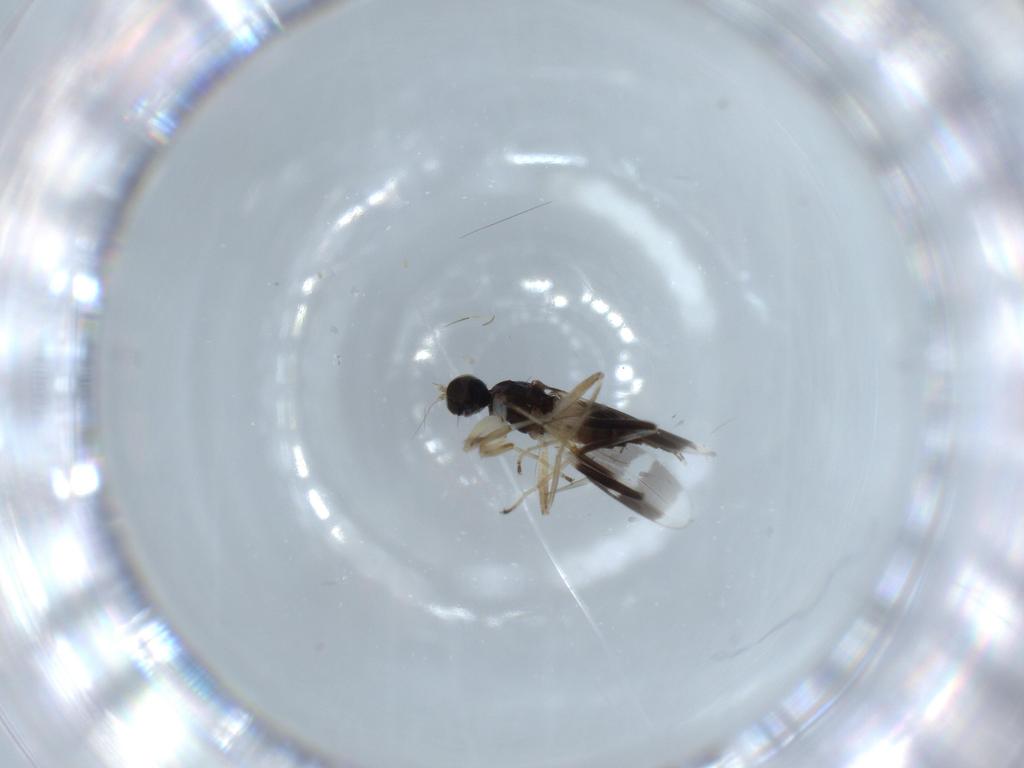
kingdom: Animalia
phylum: Arthropoda
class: Insecta
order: Diptera
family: Hybotidae
